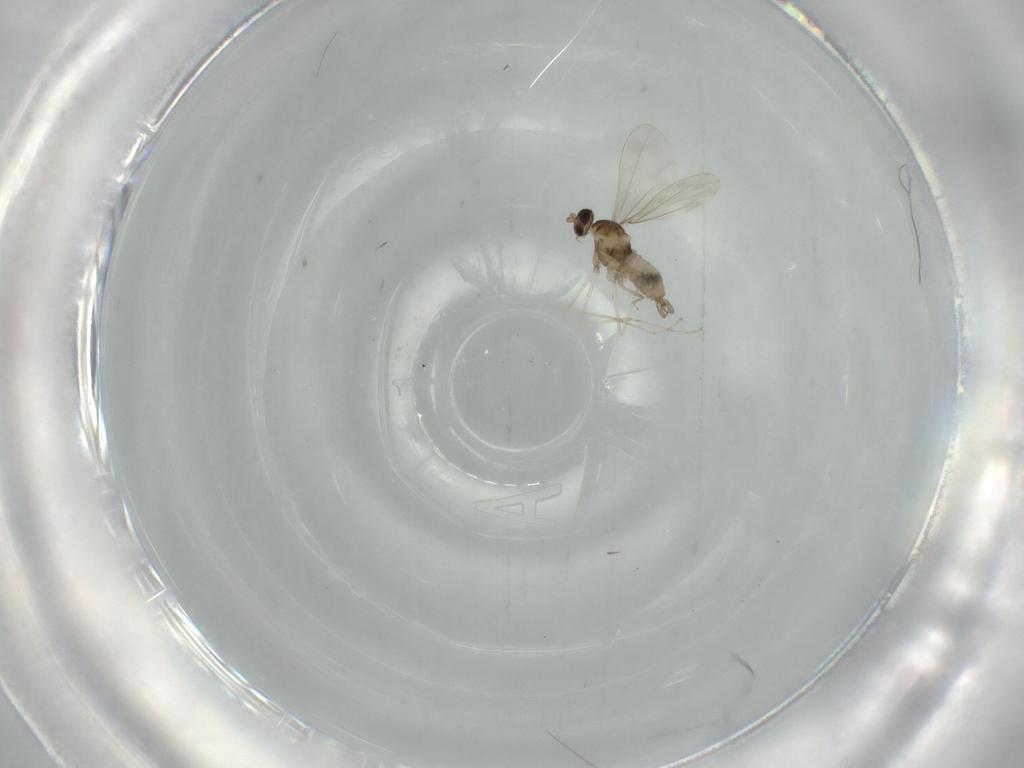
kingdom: Animalia
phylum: Arthropoda
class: Insecta
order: Diptera
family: Cecidomyiidae
